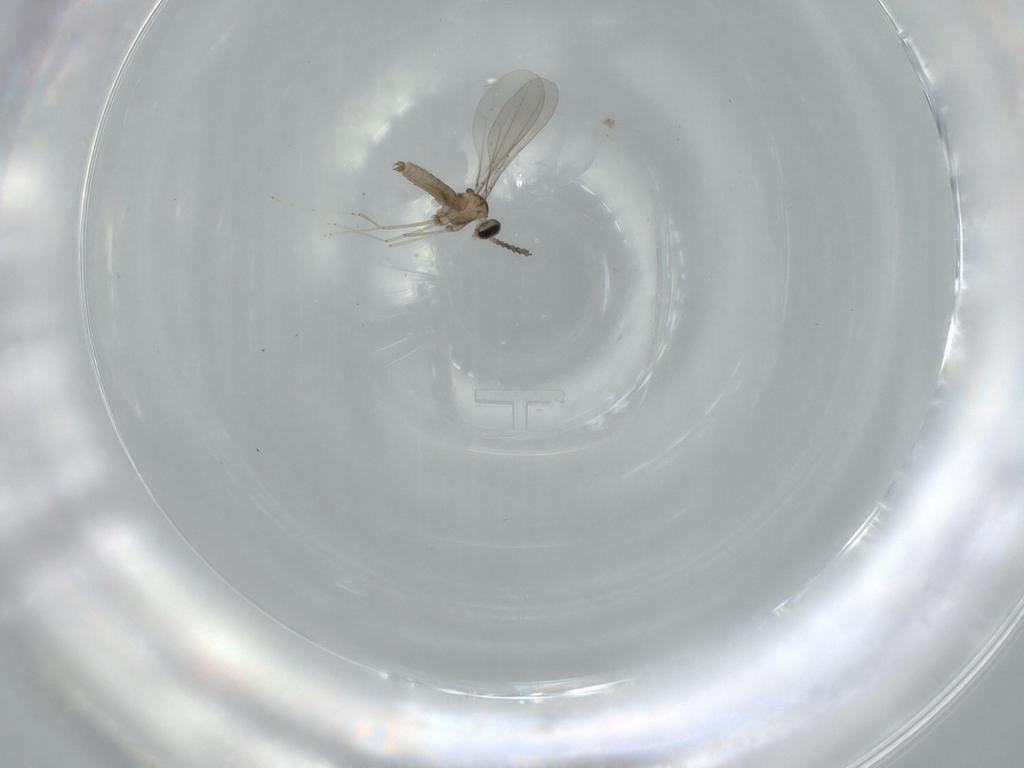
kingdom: Animalia
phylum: Arthropoda
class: Insecta
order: Diptera
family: Cecidomyiidae
